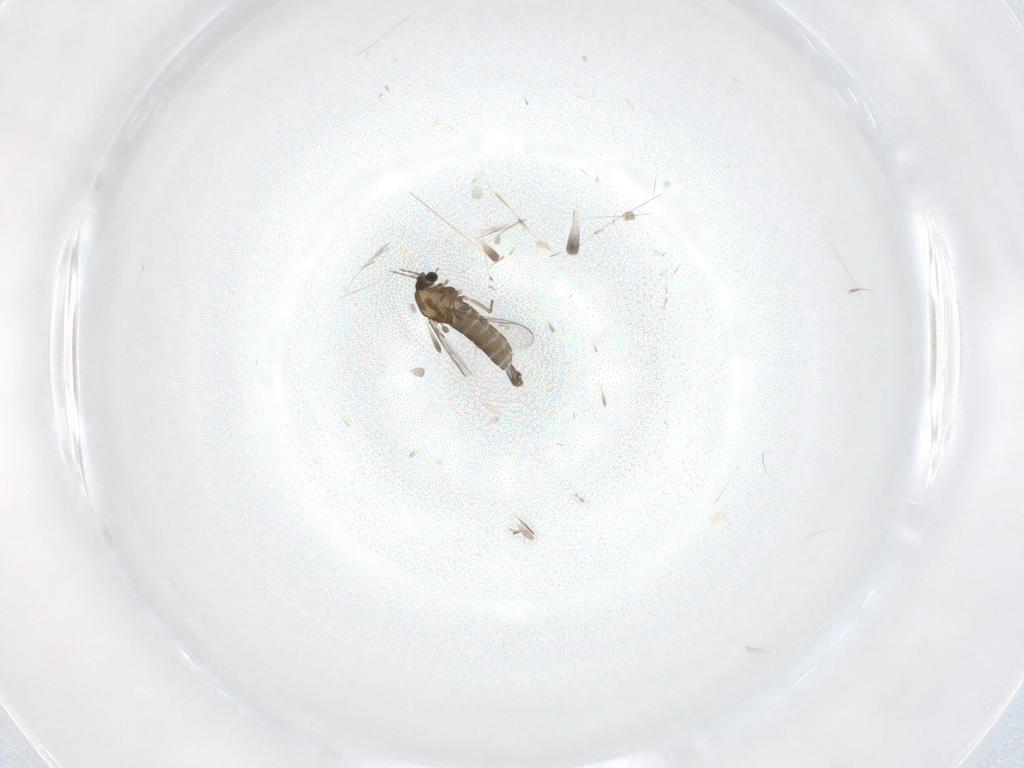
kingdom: Animalia
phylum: Arthropoda
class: Insecta
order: Diptera
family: Chironomidae
